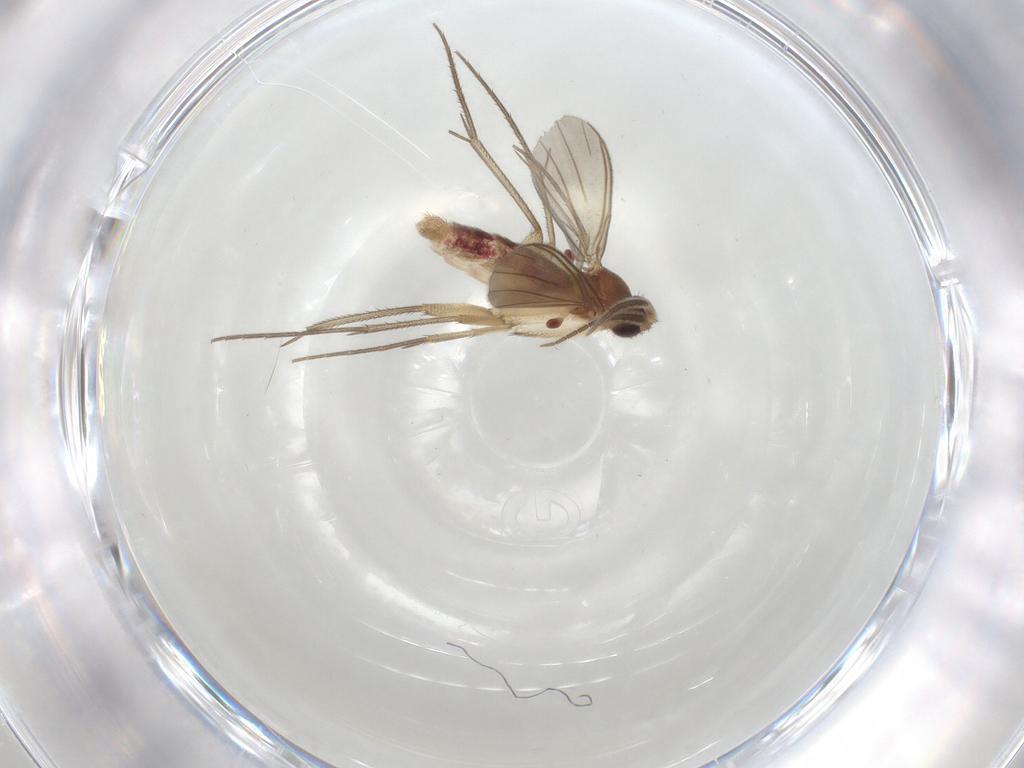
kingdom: Animalia
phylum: Arthropoda
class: Insecta
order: Diptera
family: Mycetophilidae
